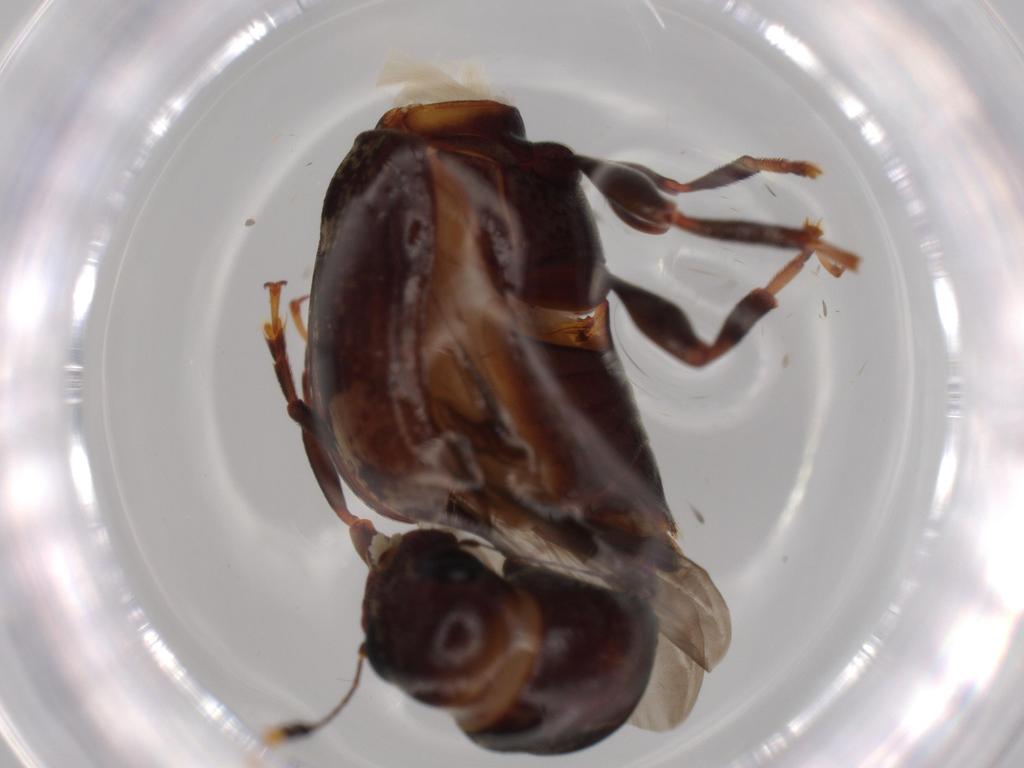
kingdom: Animalia
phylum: Arthropoda
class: Insecta
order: Coleoptera
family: Anthribidae
